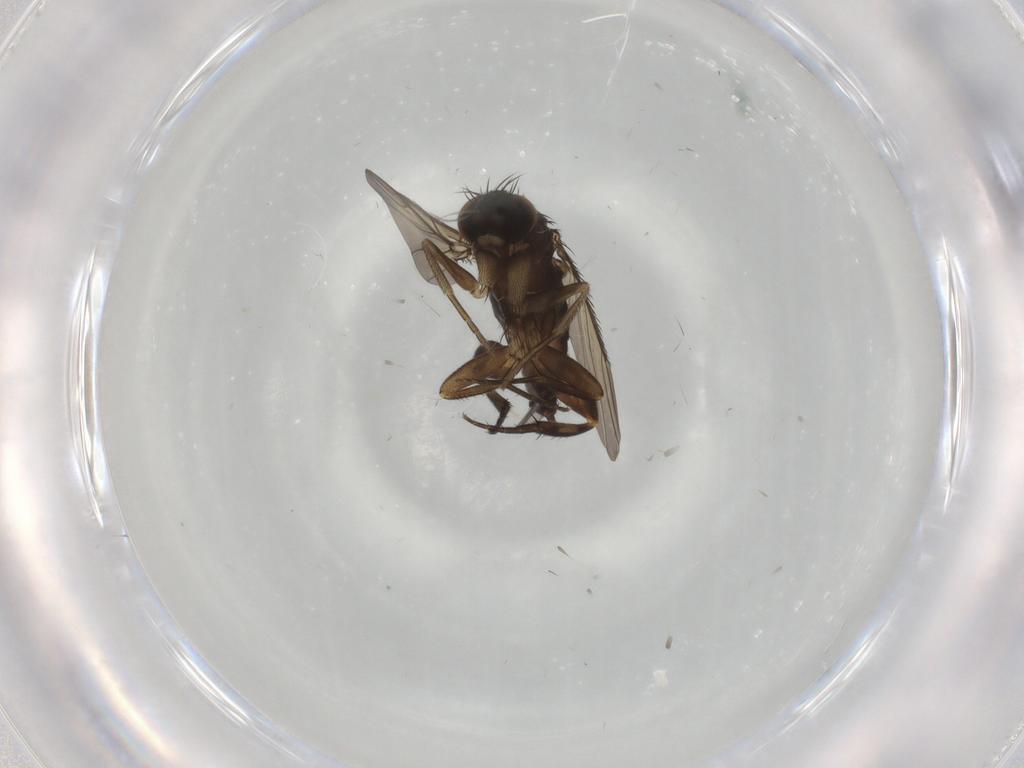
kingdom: Animalia
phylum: Arthropoda
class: Insecta
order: Diptera
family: Phoridae
